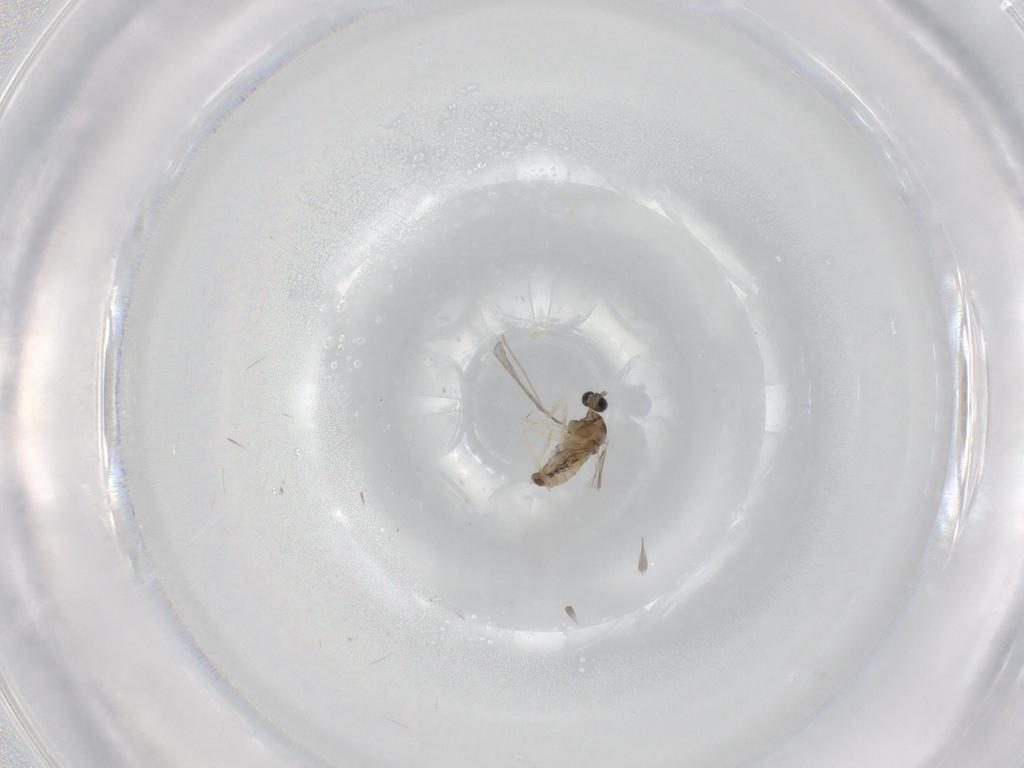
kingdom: Animalia
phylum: Arthropoda
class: Insecta
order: Diptera
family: Cecidomyiidae
